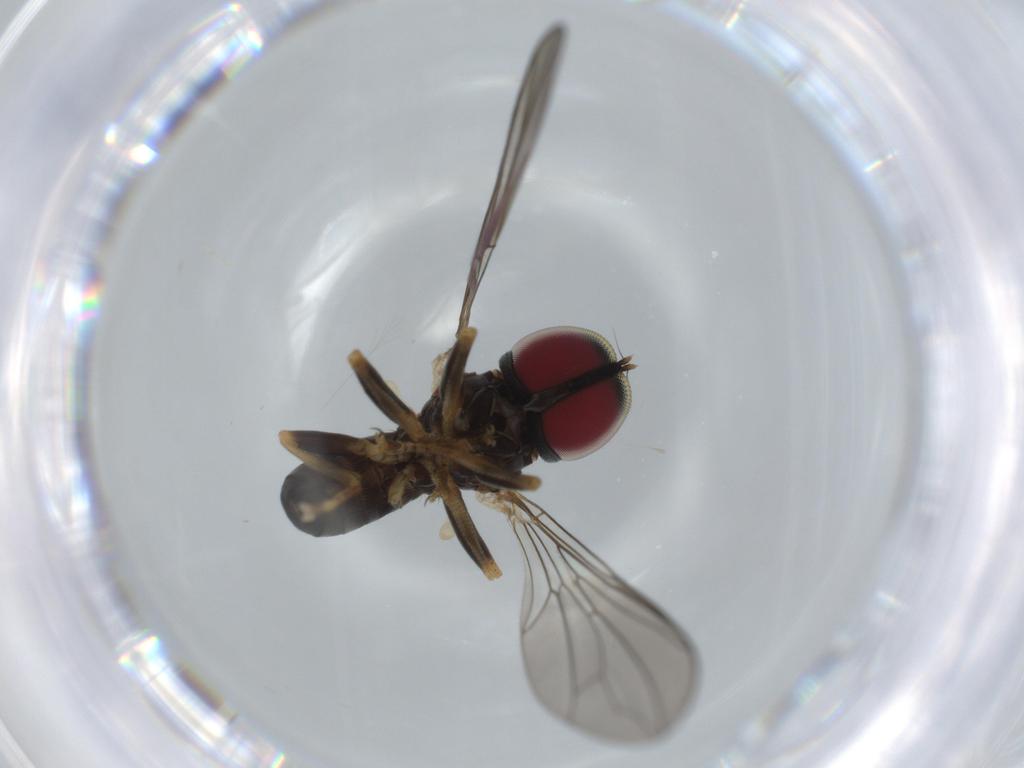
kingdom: Animalia
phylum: Arthropoda
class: Insecta
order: Diptera
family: Pipunculidae
